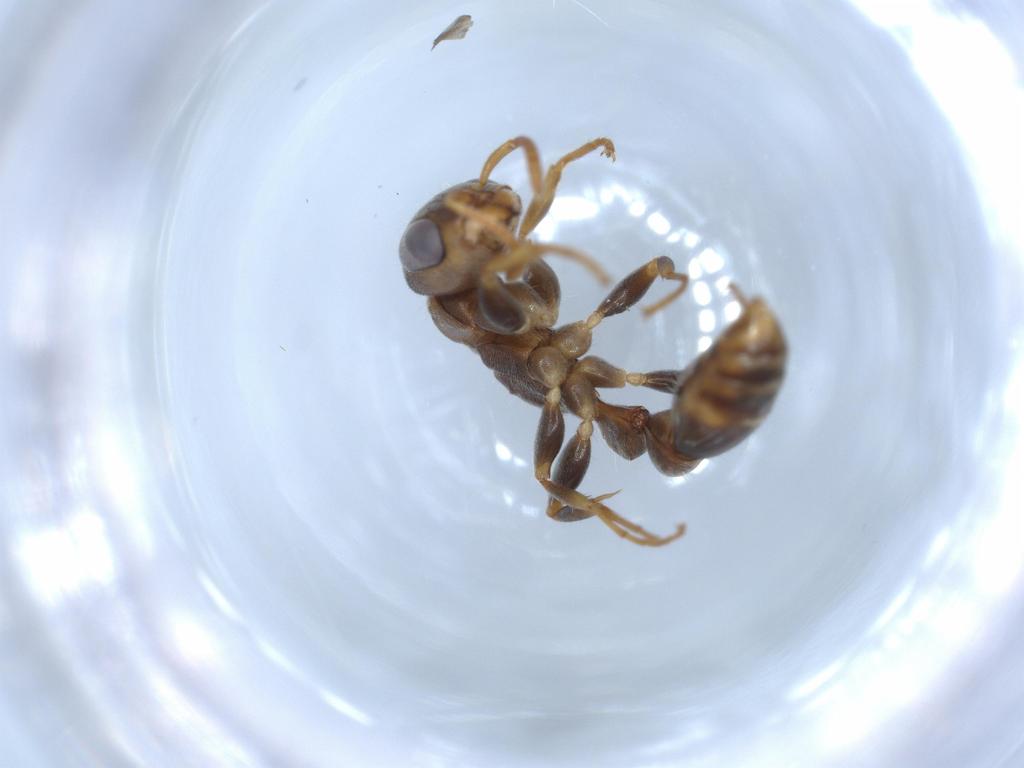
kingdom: Animalia
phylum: Arthropoda
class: Insecta
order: Hymenoptera
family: Formicidae
